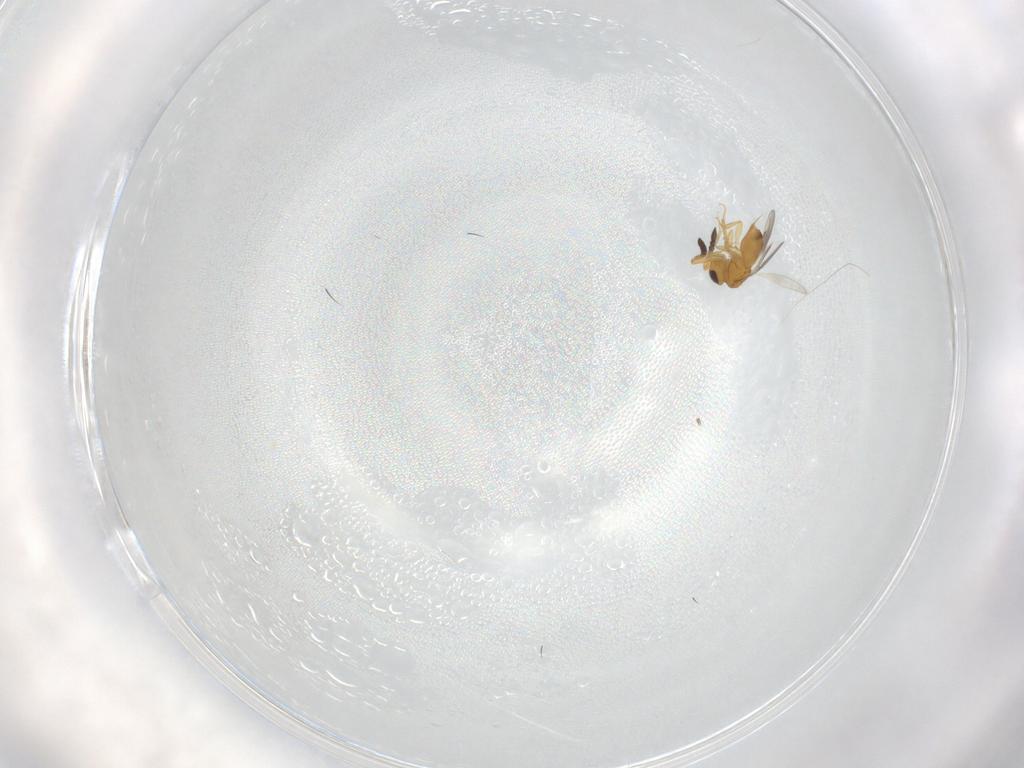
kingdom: Animalia
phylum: Arthropoda
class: Insecta
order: Hymenoptera
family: Ceraphronidae
